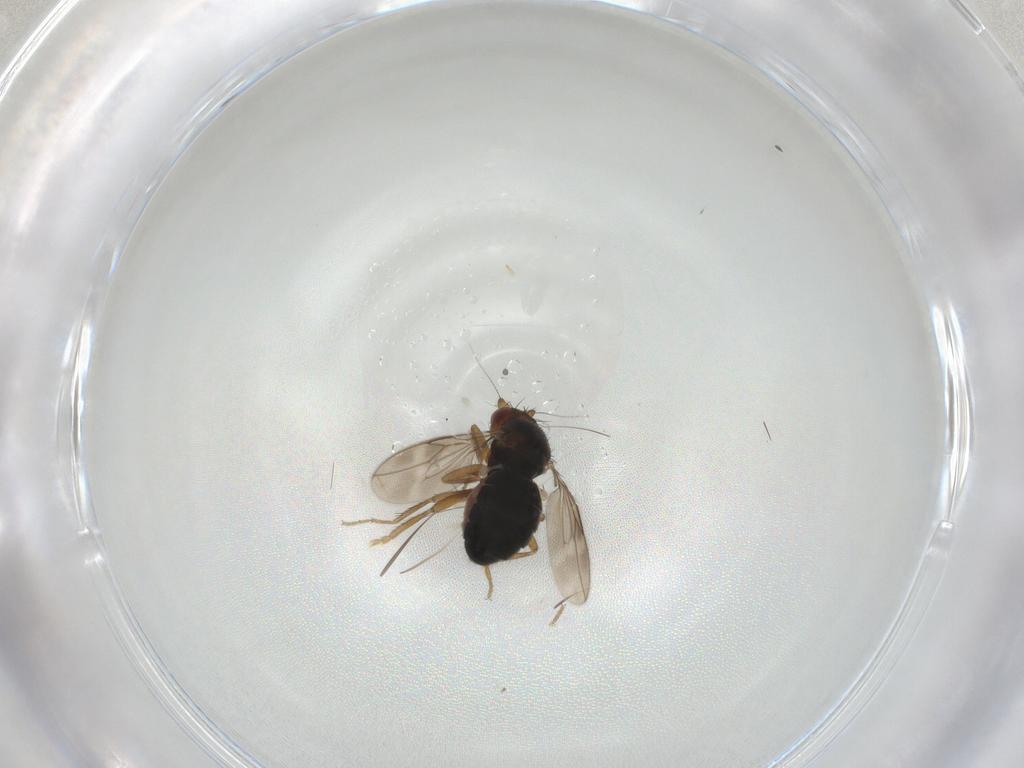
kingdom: Animalia
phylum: Arthropoda
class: Insecta
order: Diptera
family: Sphaeroceridae
